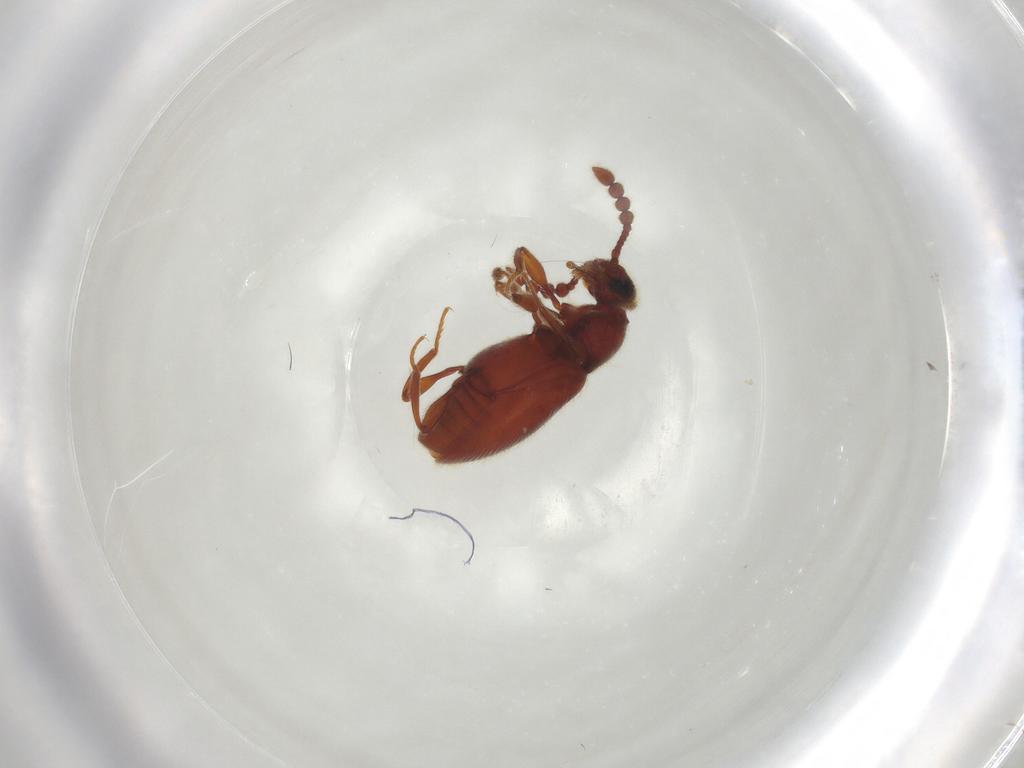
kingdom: Animalia
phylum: Arthropoda
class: Insecta
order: Coleoptera
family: Staphylinidae
